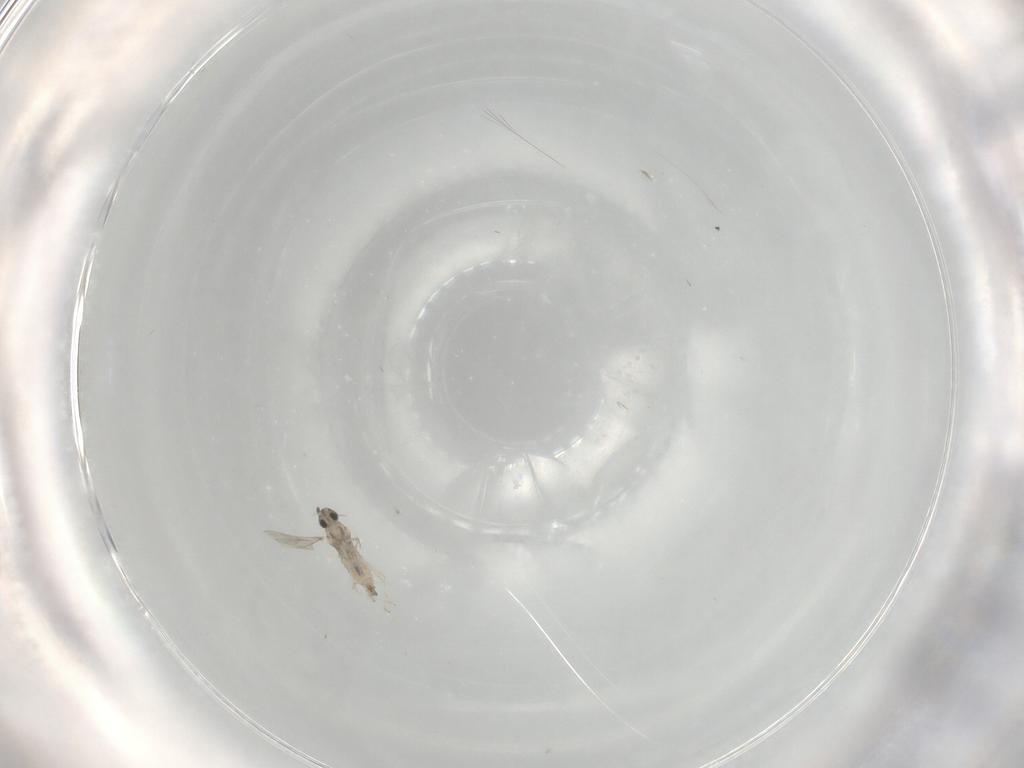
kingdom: Animalia
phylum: Arthropoda
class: Insecta
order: Diptera
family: Cecidomyiidae
